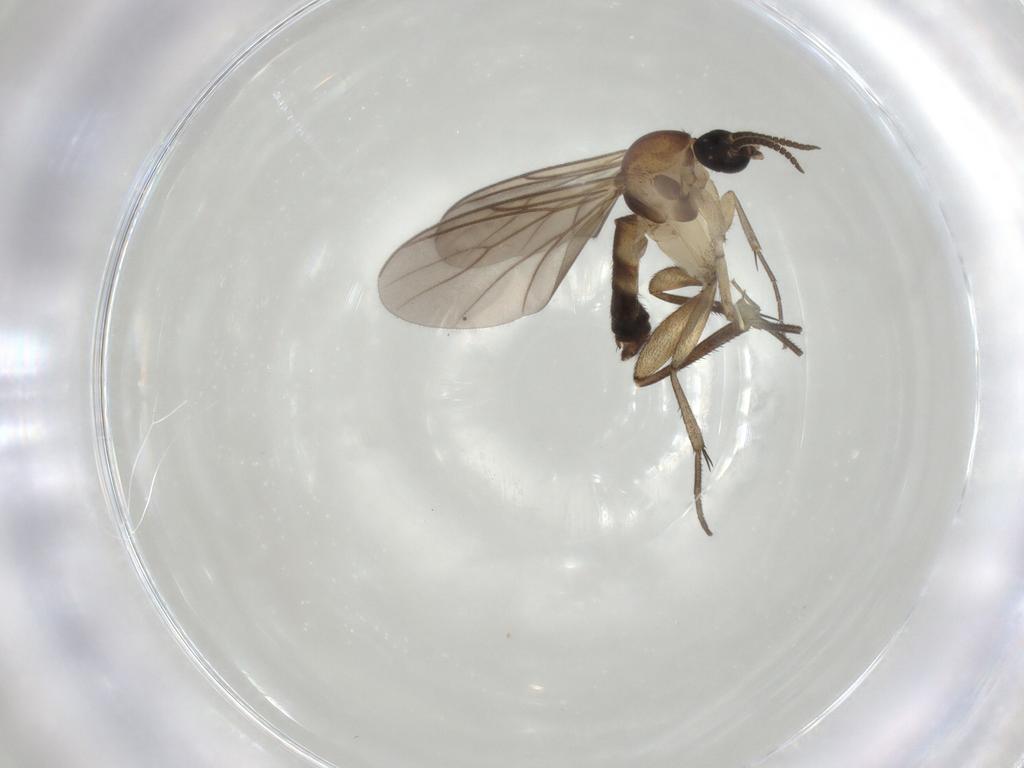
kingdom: Animalia
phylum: Arthropoda
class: Insecta
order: Diptera
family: Mycetophilidae
